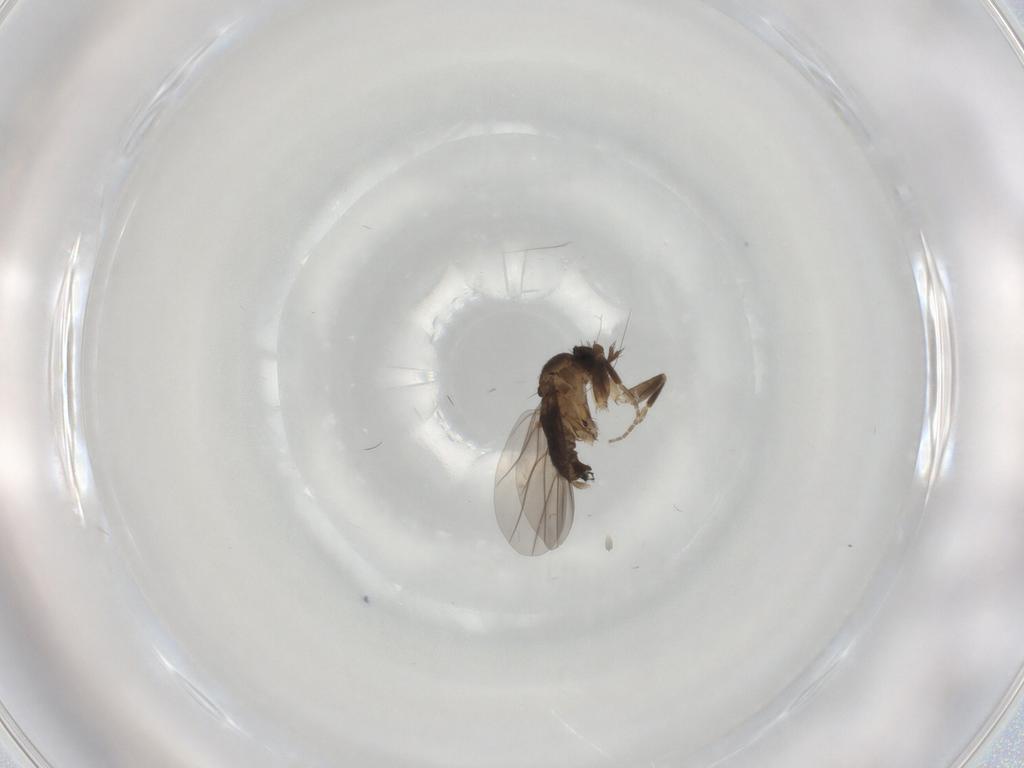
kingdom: Animalia
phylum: Arthropoda
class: Insecta
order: Diptera
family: Phoridae
